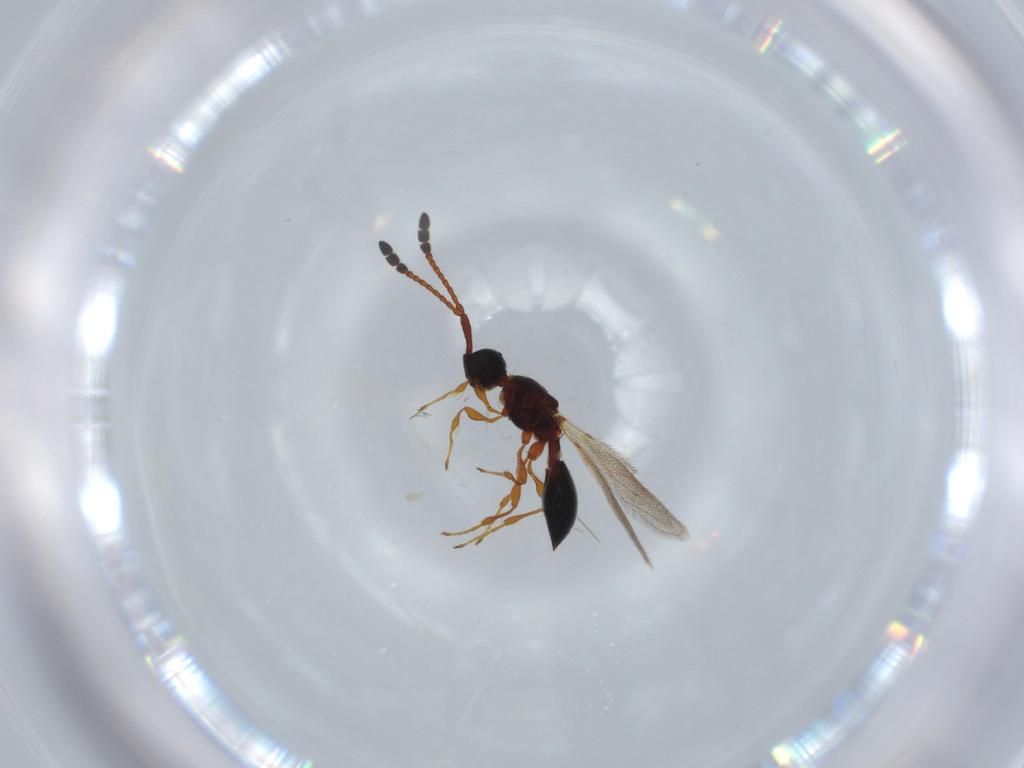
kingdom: Animalia
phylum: Arthropoda
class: Insecta
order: Hymenoptera
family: Diapriidae
